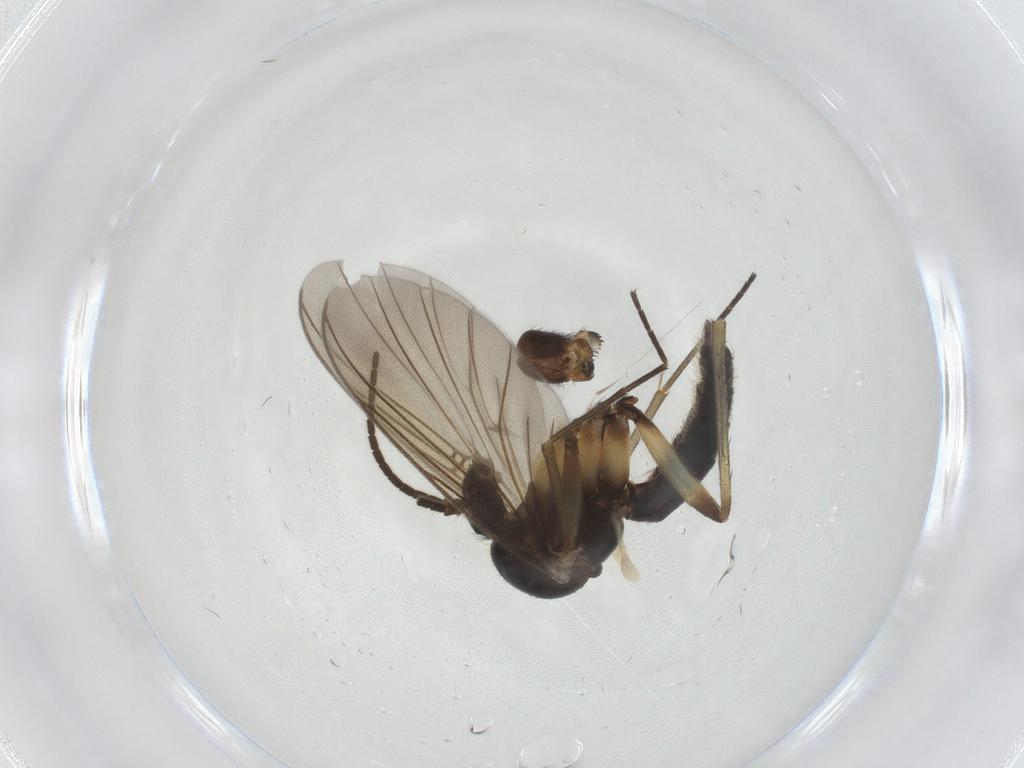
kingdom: Animalia
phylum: Arthropoda
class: Insecta
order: Diptera
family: Mycetophilidae
